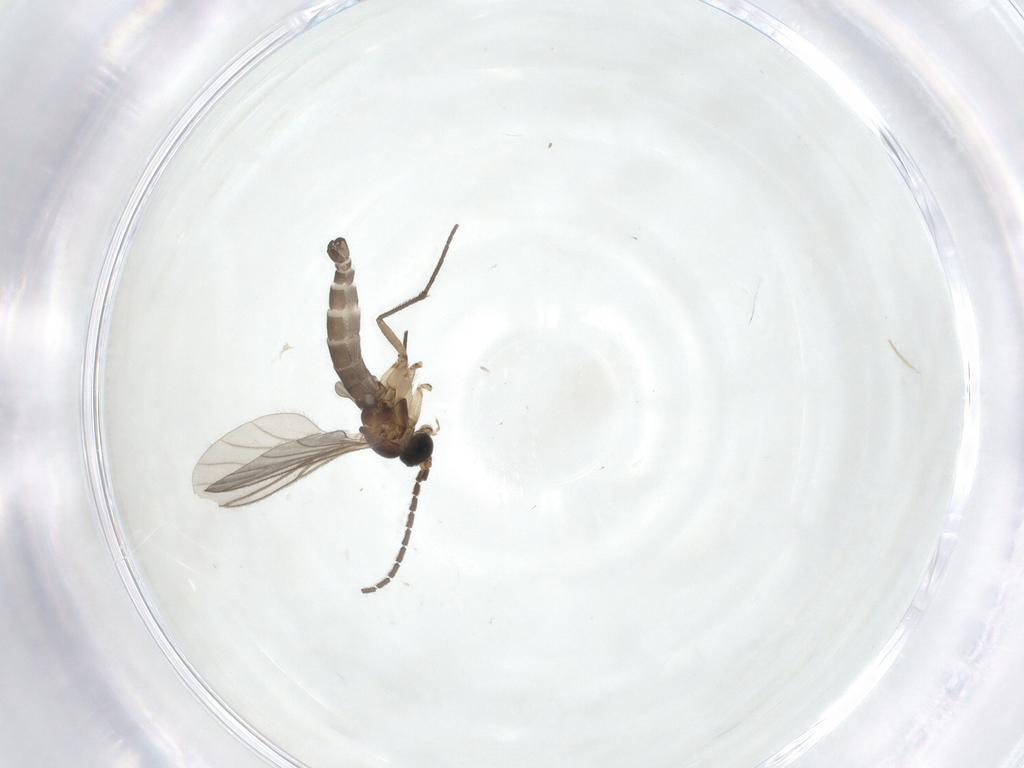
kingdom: Animalia
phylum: Arthropoda
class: Insecta
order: Diptera
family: Sciaridae
